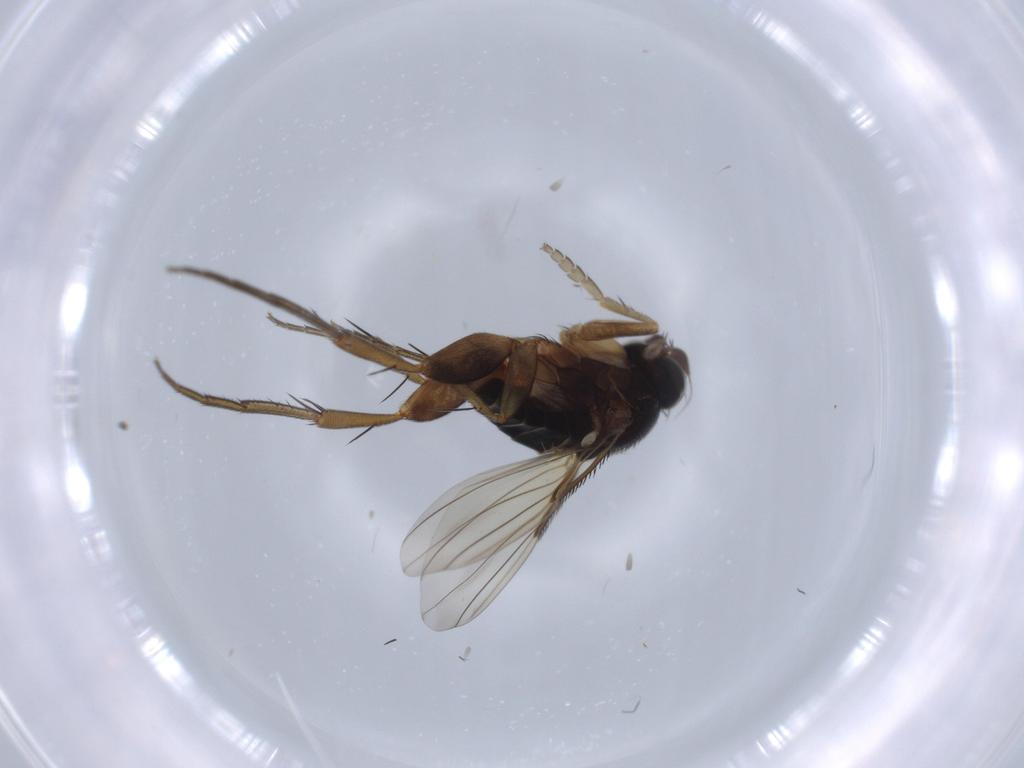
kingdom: Animalia
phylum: Arthropoda
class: Insecta
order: Diptera
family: Phoridae
